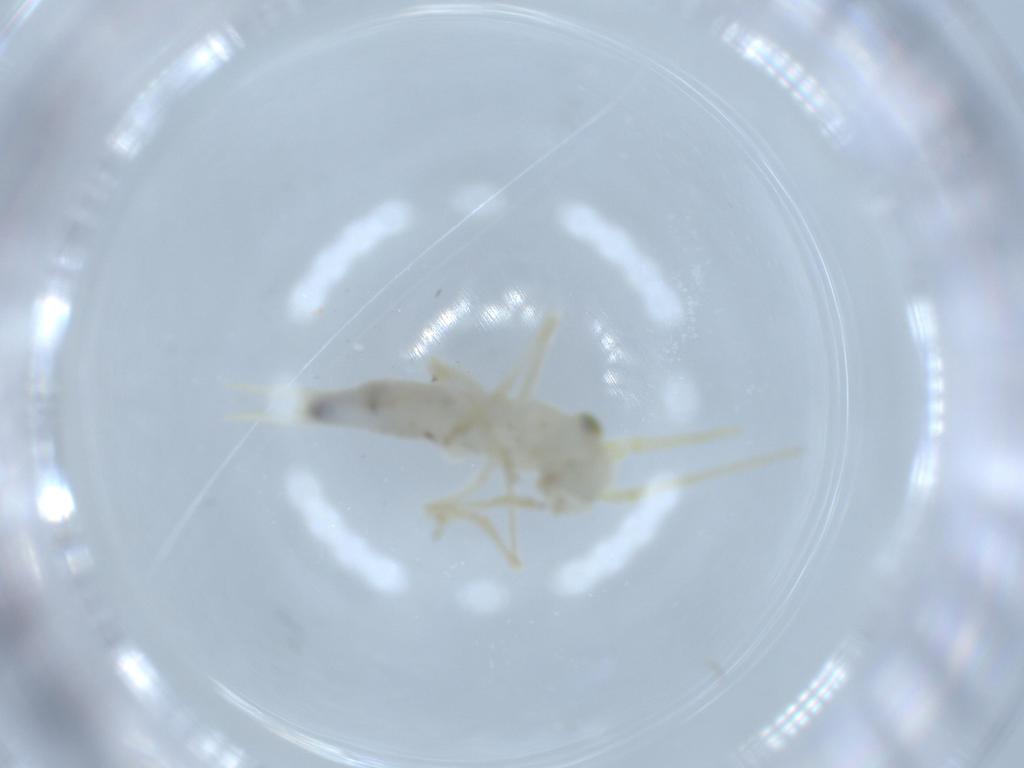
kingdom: Animalia
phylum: Arthropoda
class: Insecta
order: Orthoptera
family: Trigonidiidae
